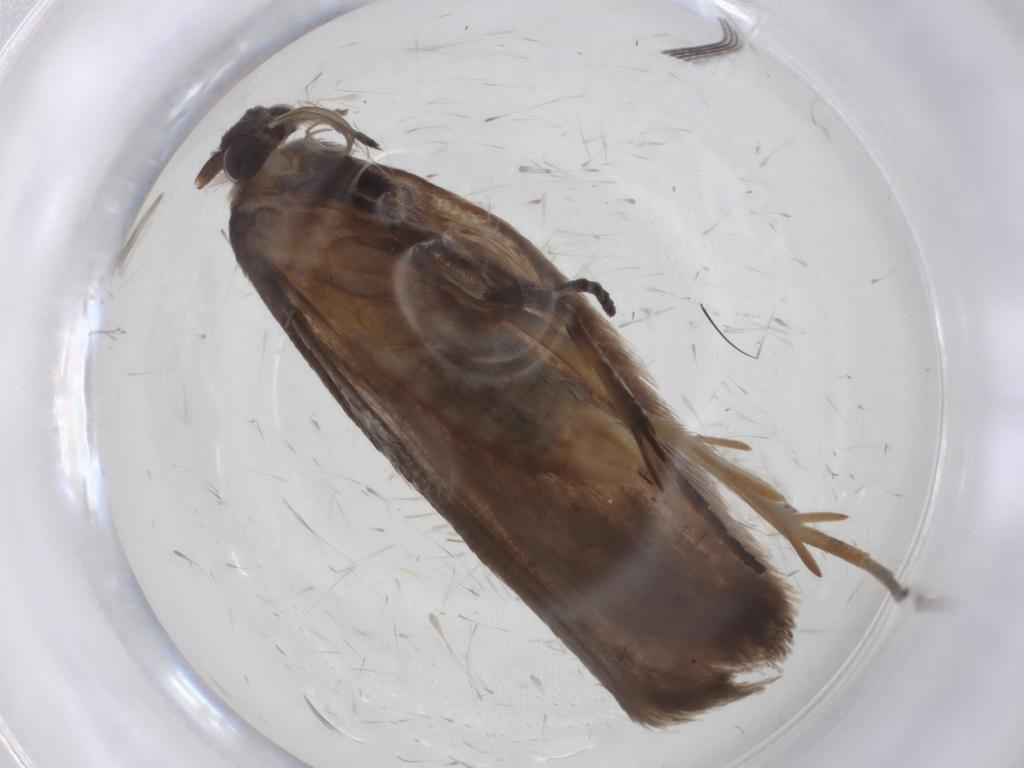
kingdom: Animalia
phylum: Arthropoda
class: Insecta
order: Lepidoptera
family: Roeslerstammiidae
